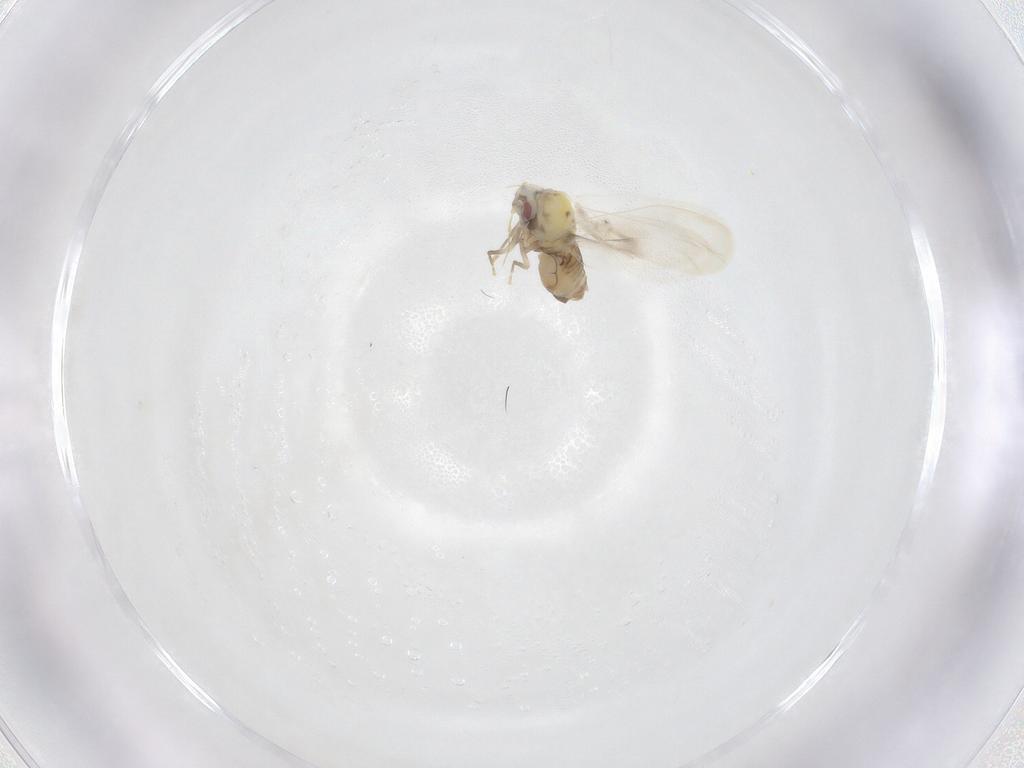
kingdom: Animalia
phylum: Arthropoda
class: Insecta
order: Hemiptera
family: Aleyrodidae
